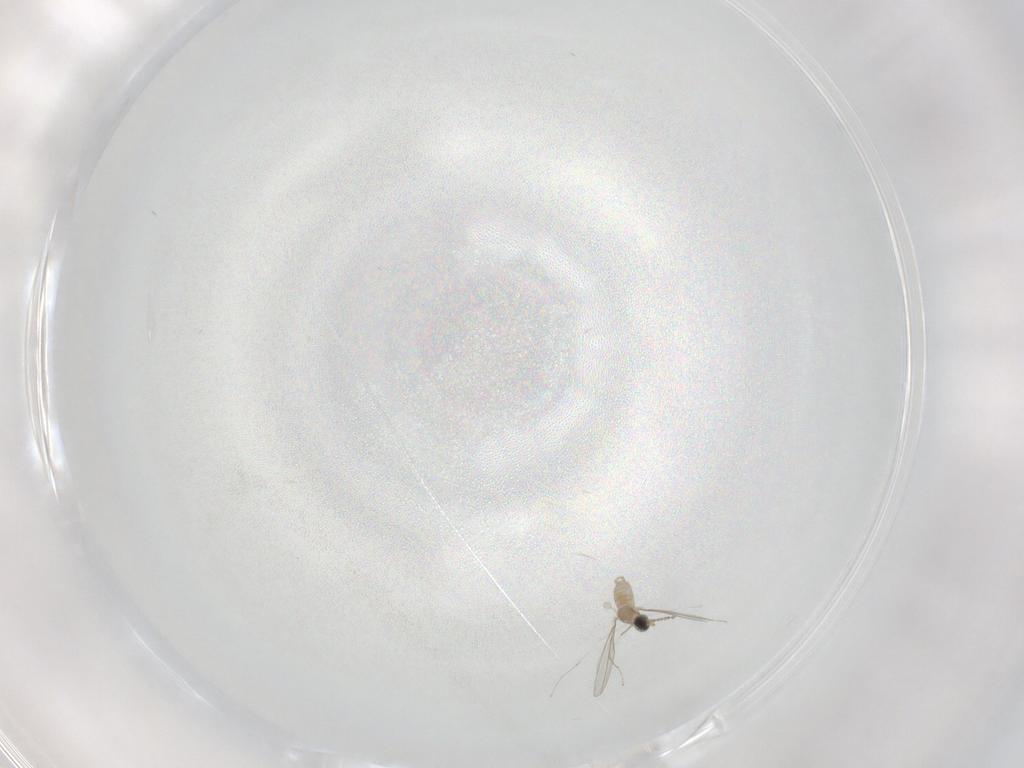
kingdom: Animalia
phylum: Arthropoda
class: Insecta
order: Diptera
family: Cecidomyiidae
